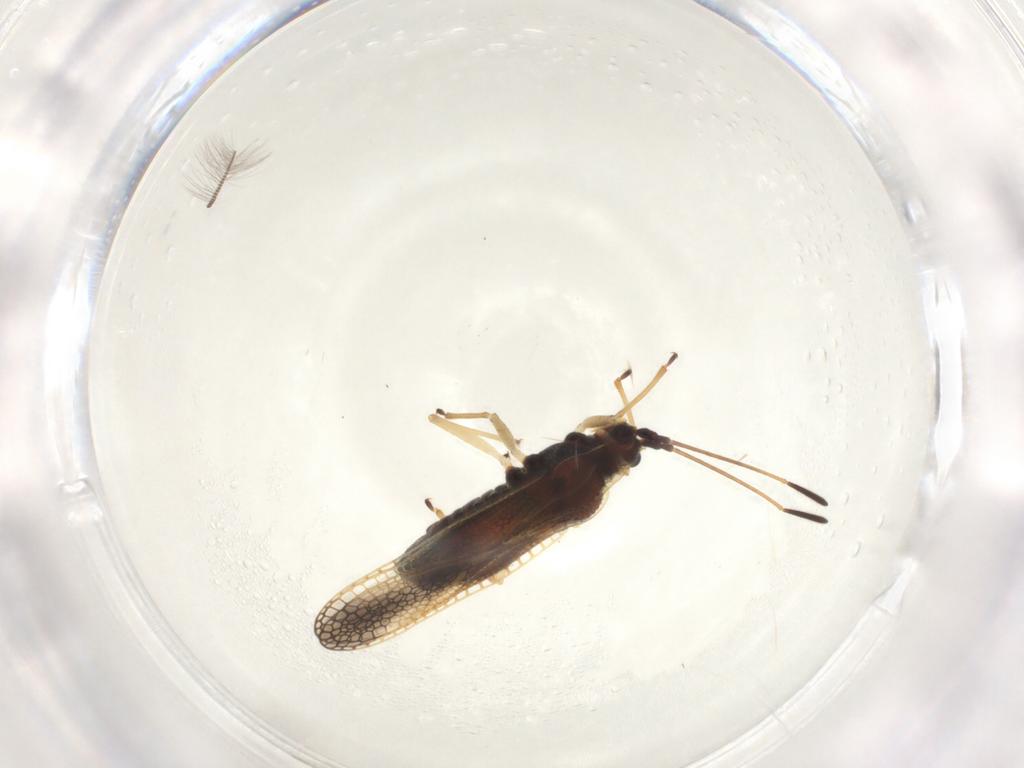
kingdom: Animalia
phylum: Arthropoda
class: Insecta
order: Hemiptera
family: Tingidae
